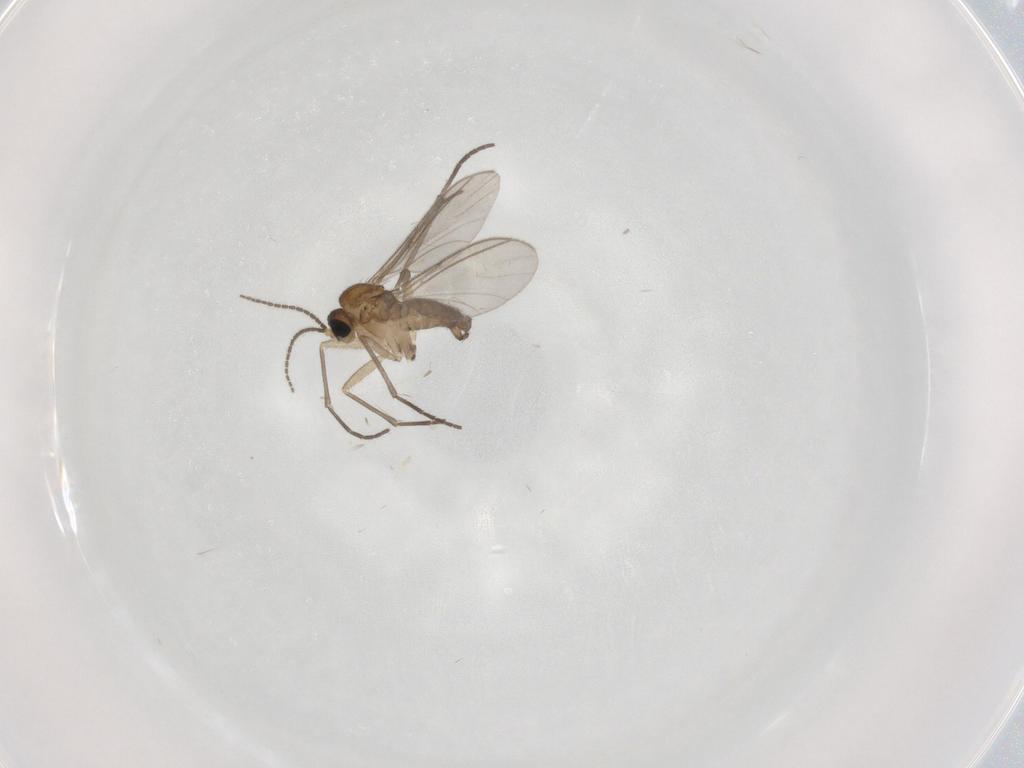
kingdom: Animalia
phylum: Arthropoda
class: Insecta
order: Diptera
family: Sciaridae
